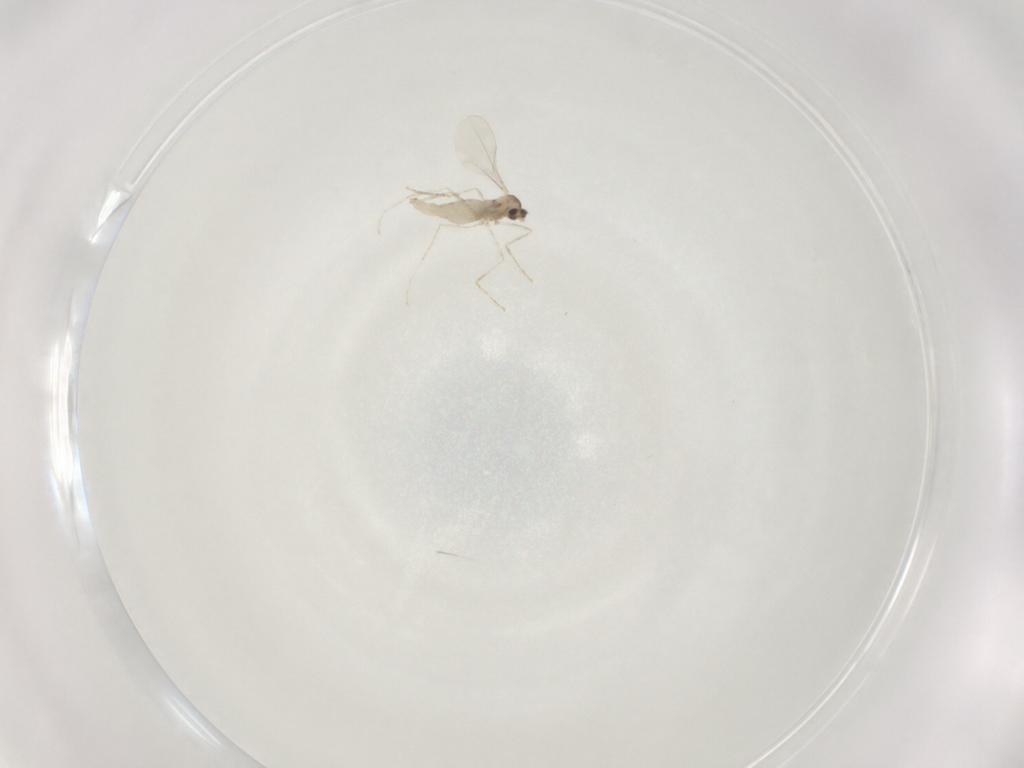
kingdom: Animalia
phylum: Arthropoda
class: Insecta
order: Diptera
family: Cecidomyiidae
